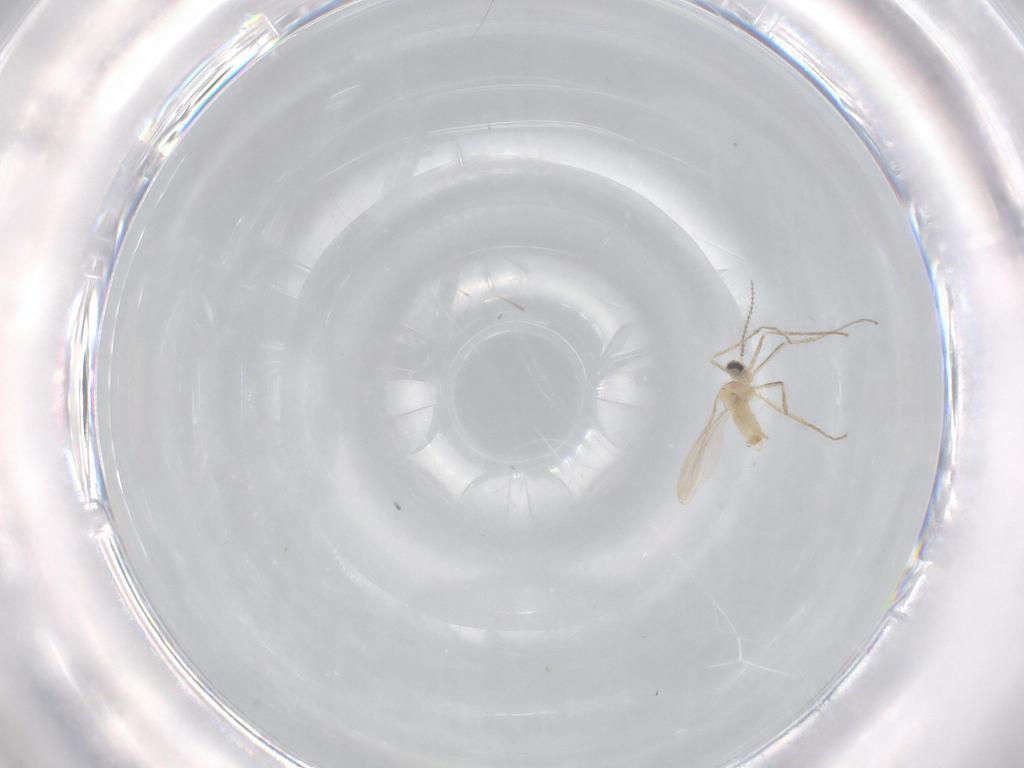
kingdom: Animalia
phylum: Arthropoda
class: Insecta
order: Diptera
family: Cecidomyiidae
